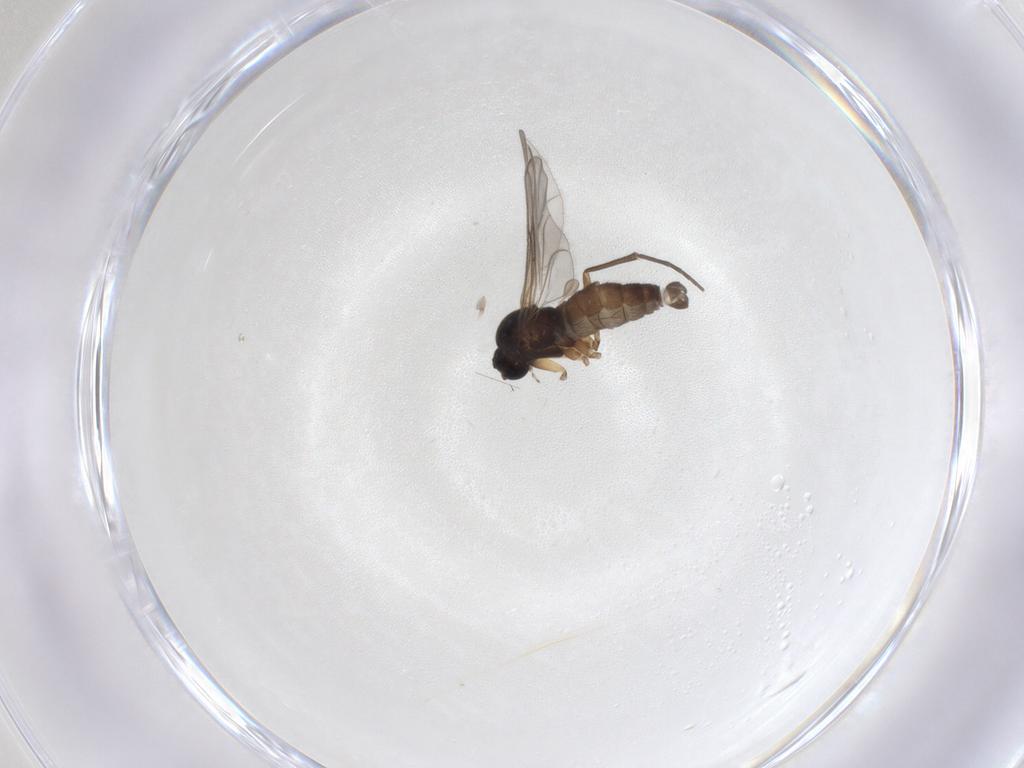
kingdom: Animalia
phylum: Arthropoda
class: Insecta
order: Diptera
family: Sciaridae
